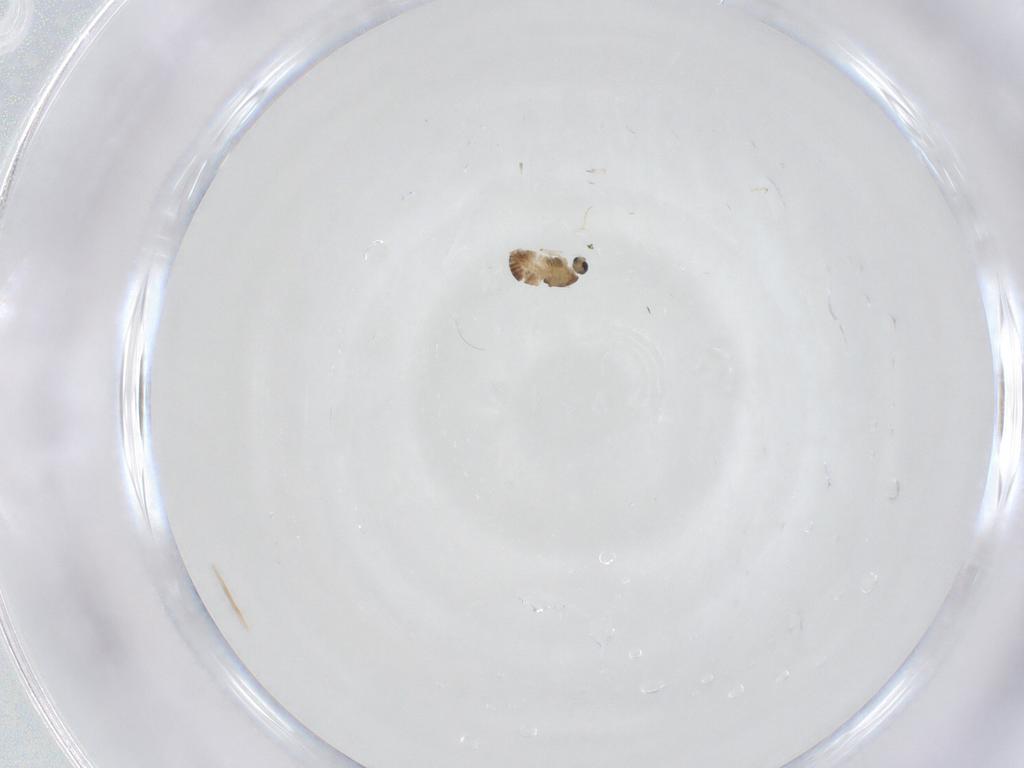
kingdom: Animalia
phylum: Arthropoda
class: Insecta
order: Diptera
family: Chironomidae
